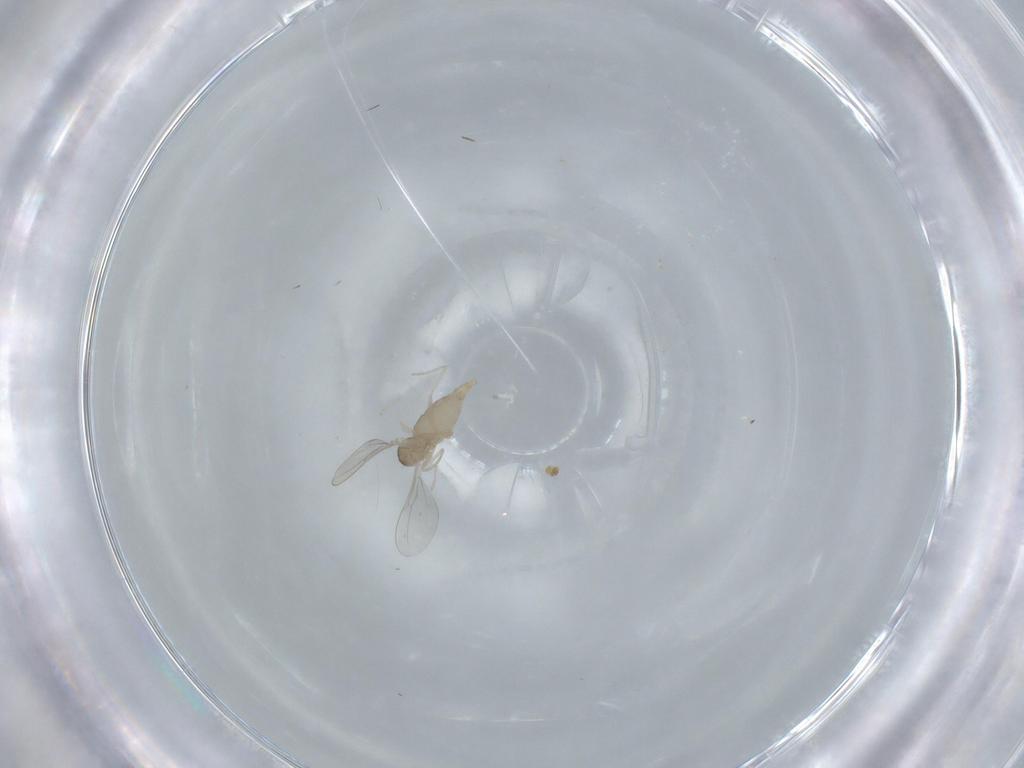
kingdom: Animalia
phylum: Arthropoda
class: Insecta
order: Diptera
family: Cecidomyiidae
